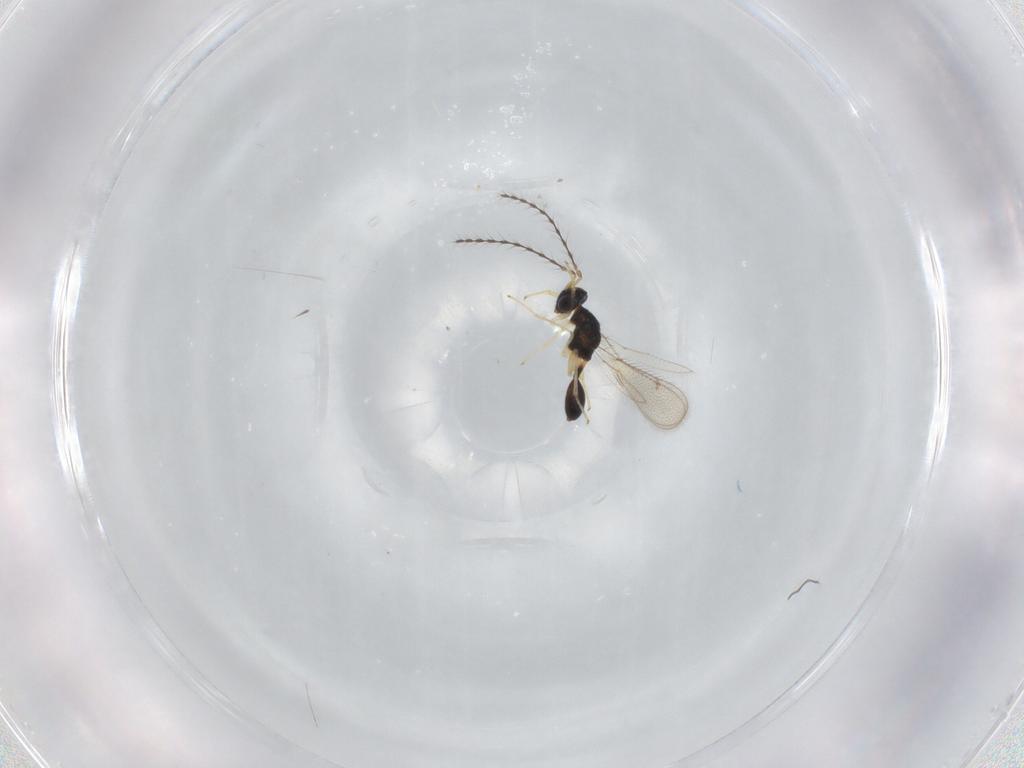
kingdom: Animalia
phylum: Arthropoda
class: Insecta
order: Hymenoptera
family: Diparidae
